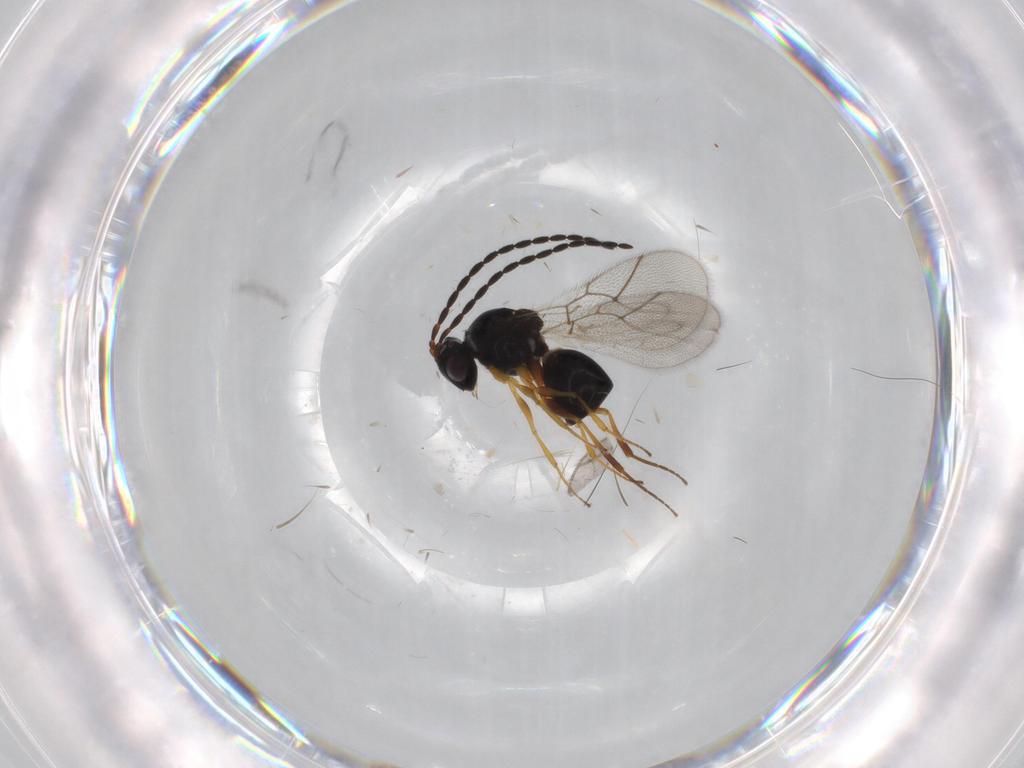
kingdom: Animalia
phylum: Arthropoda
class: Insecta
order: Hymenoptera
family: Figitidae
